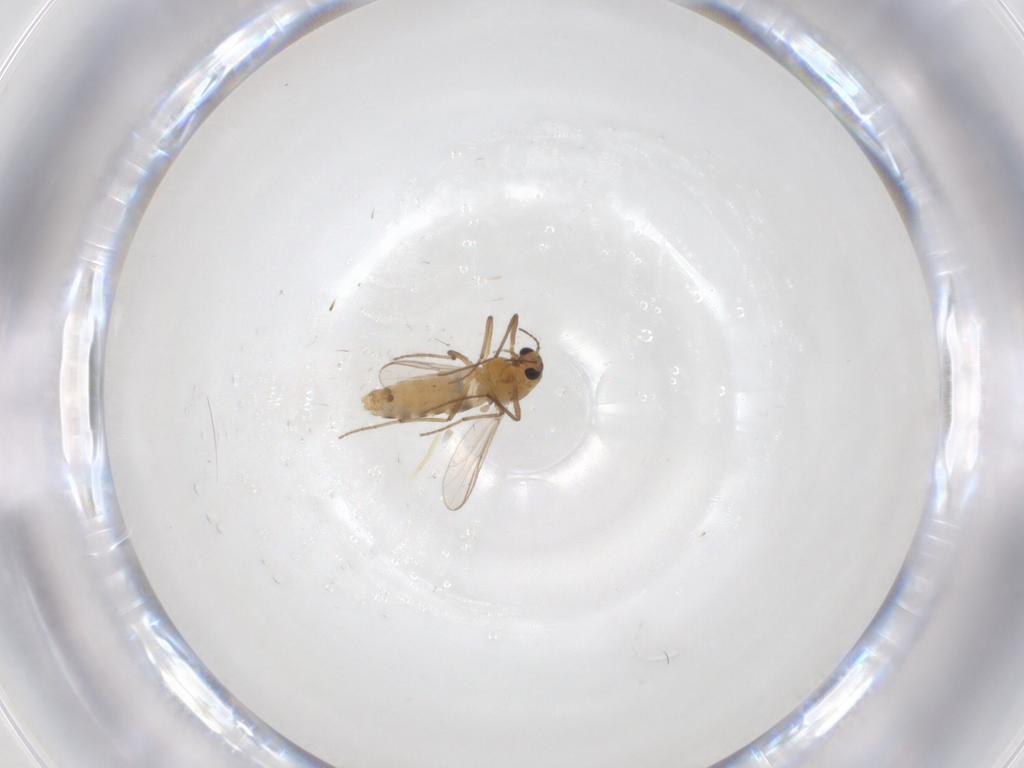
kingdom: Animalia
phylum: Arthropoda
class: Insecta
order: Diptera
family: Chironomidae
